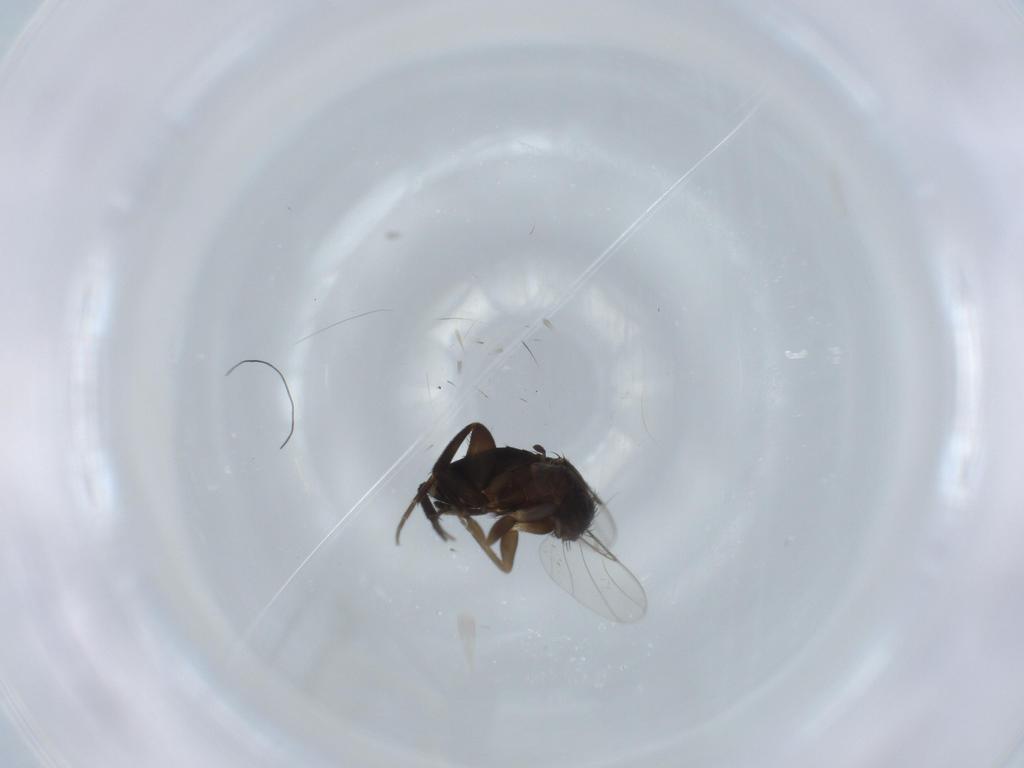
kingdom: Animalia
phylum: Arthropoda
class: Insecta
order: Diptera
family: Phoridae
